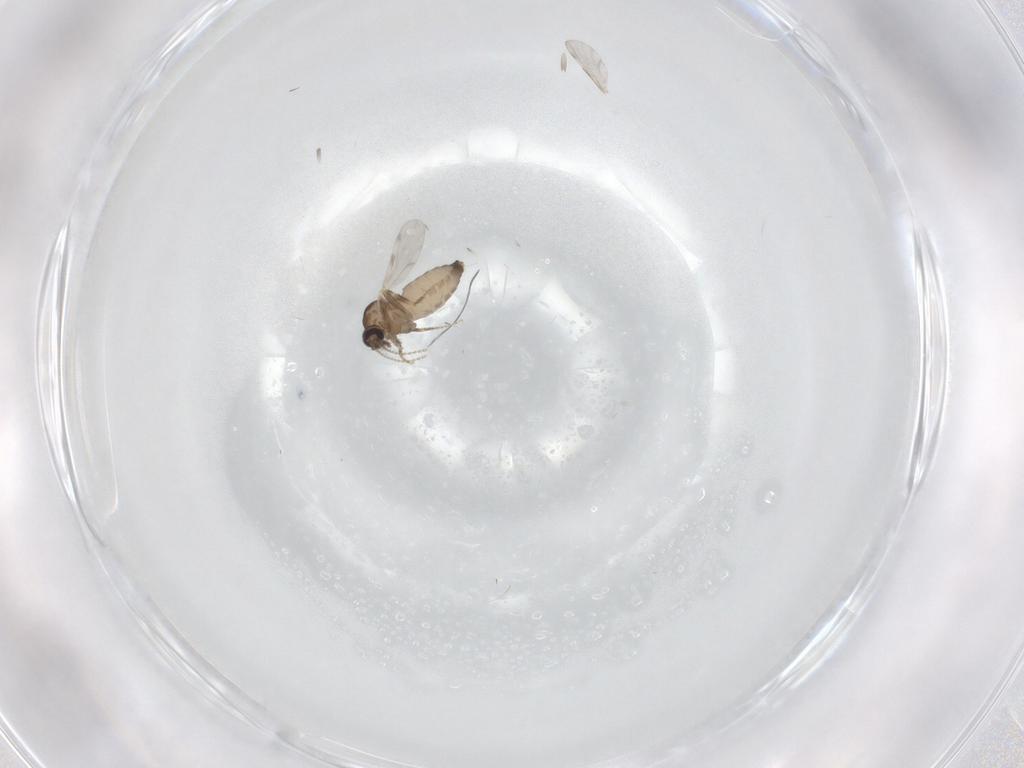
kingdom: Animalia
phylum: Arthropoda
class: Insecta
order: Diptera
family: Ceratopogonidae
